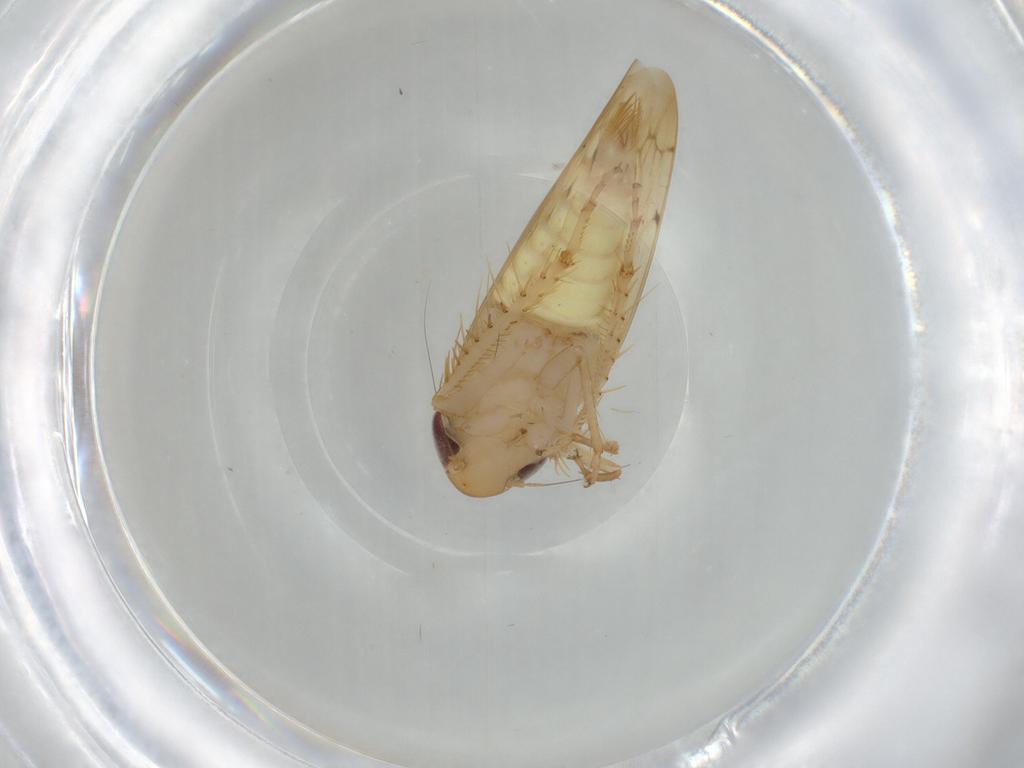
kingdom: Animalia
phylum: Arthropoda
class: Insecta
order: Hemiptera
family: Cicadellidae
